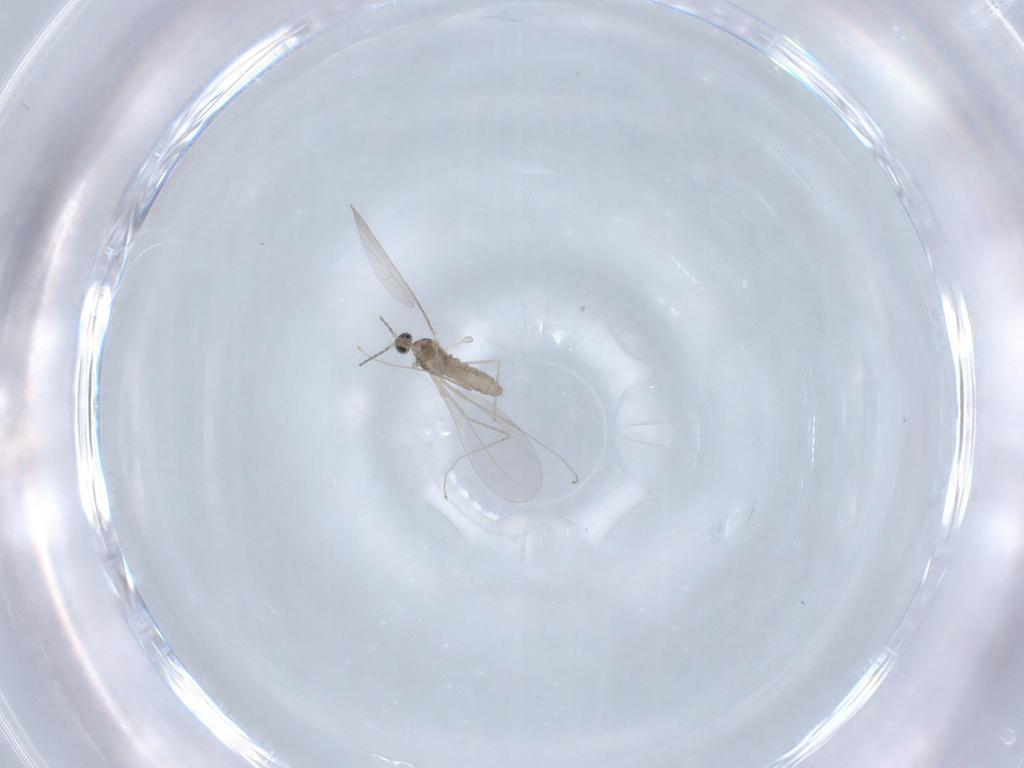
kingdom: Animalia
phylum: Arthropoda
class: Insecta
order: Diptera
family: Cecidomyiidae
